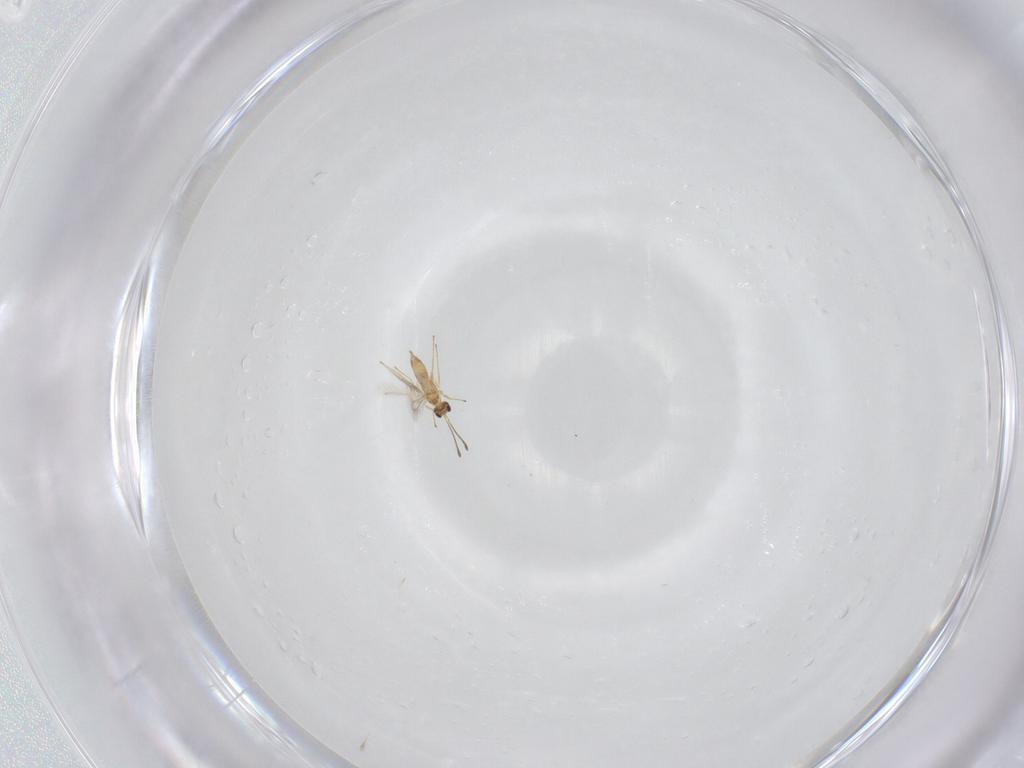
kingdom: Animalia
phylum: Arthropoda
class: Insecta
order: Hymenoptera
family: Mymaridae
